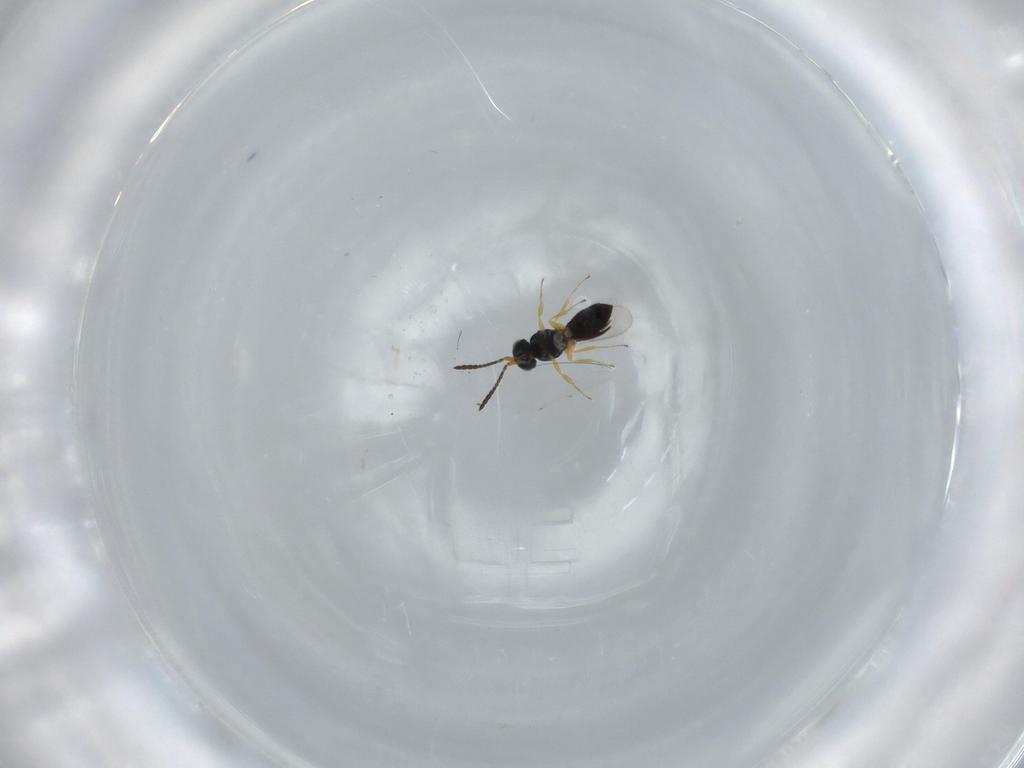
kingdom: Animalia
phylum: Arthropoda
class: Insecta
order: Hymenoptera
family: Scelionidae
